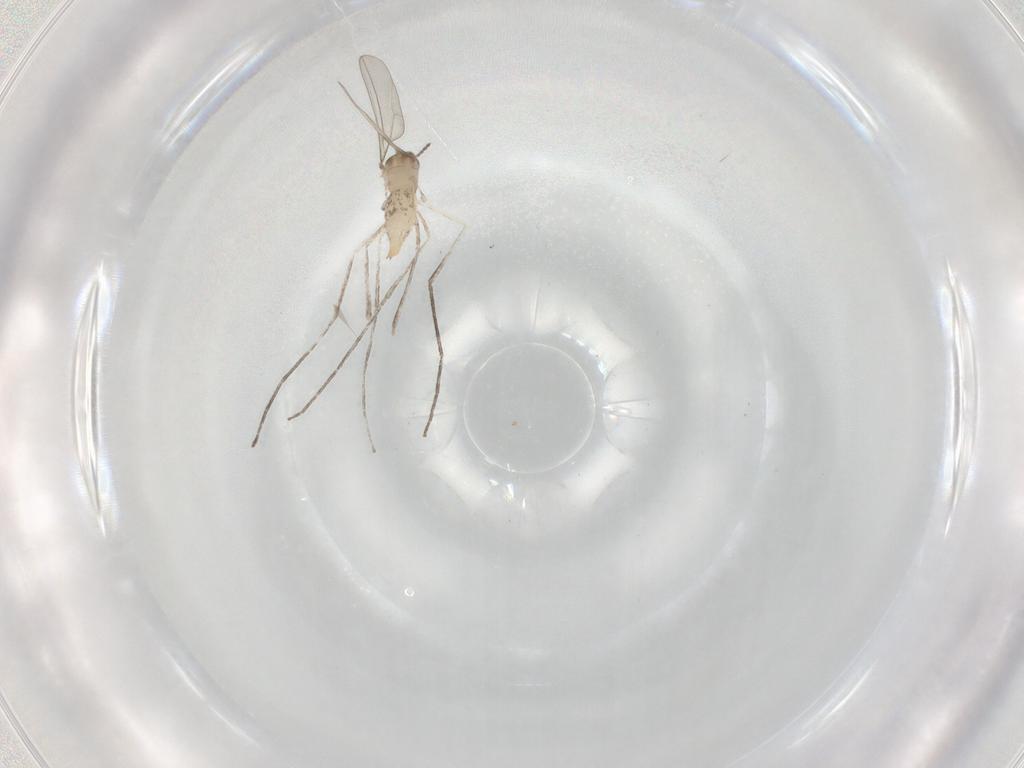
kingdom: Animalia
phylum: Arthropoda
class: Insecta
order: Diptera
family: Cecidomyiidae
